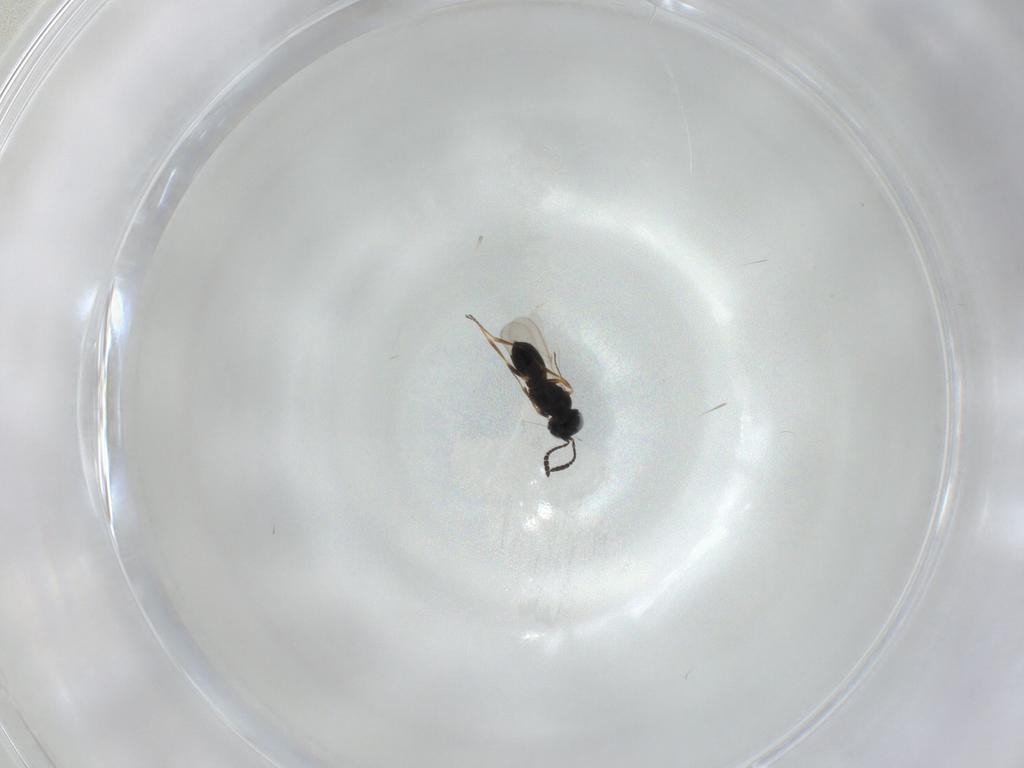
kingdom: Animalia
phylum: Arthropoda
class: Insecta
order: Hymenoptera
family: Scelionidae
